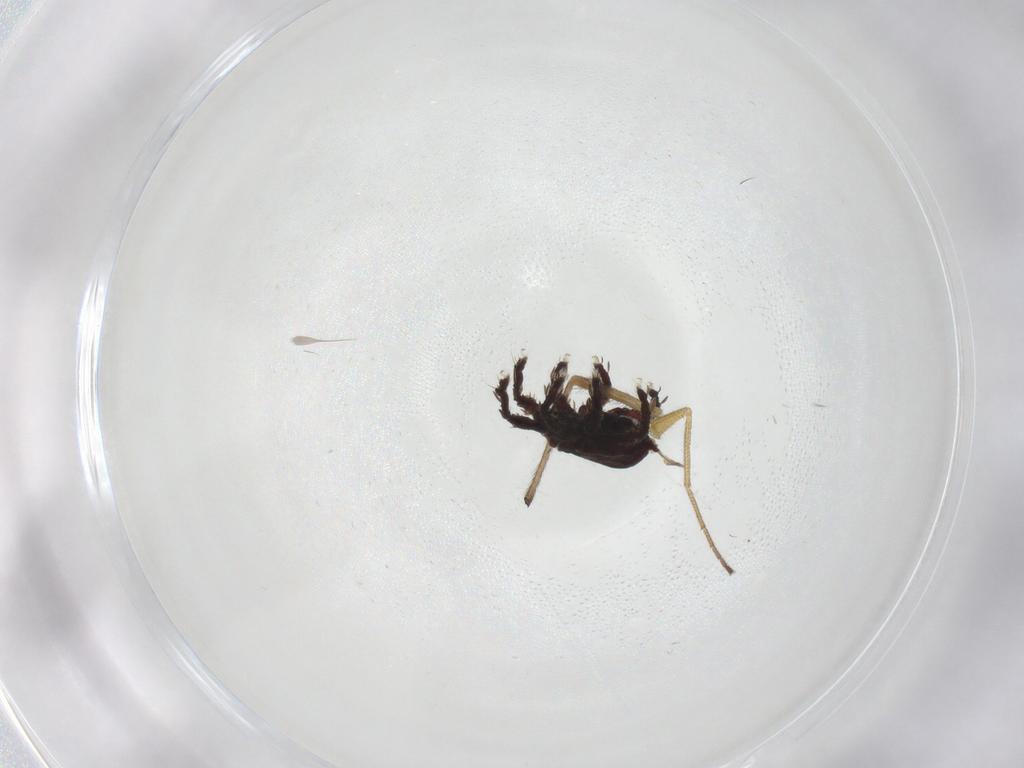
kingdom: Animalia
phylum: Arthropoda
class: Insecta
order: Diptera
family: Dolichopodidae
